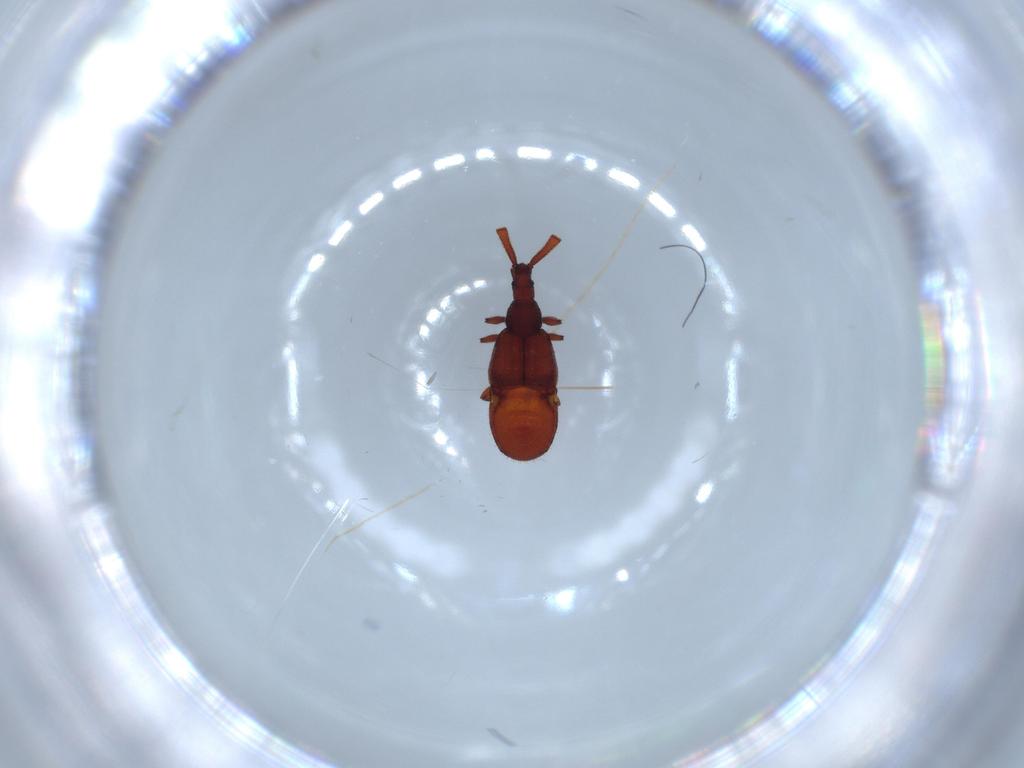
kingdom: Animalia
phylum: Arthropoda
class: Insecta
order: Coleoptera
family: Staphylinidae
